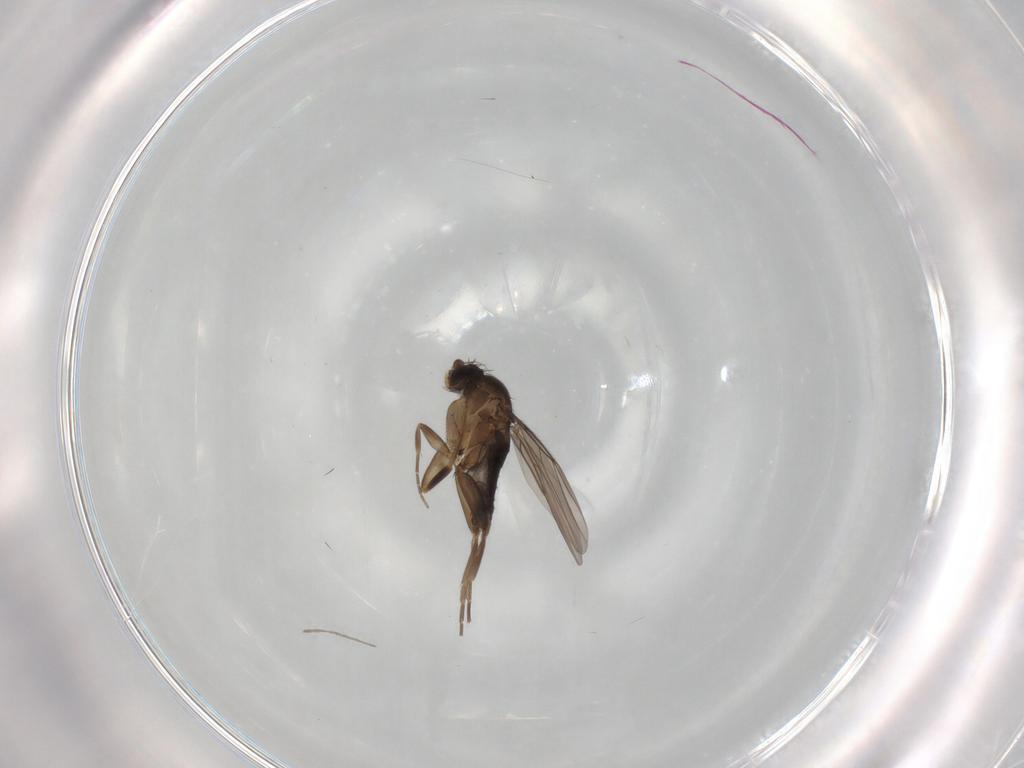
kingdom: Animalia
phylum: Arthropoda
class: Insecta
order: Diptera
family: Phoridae
